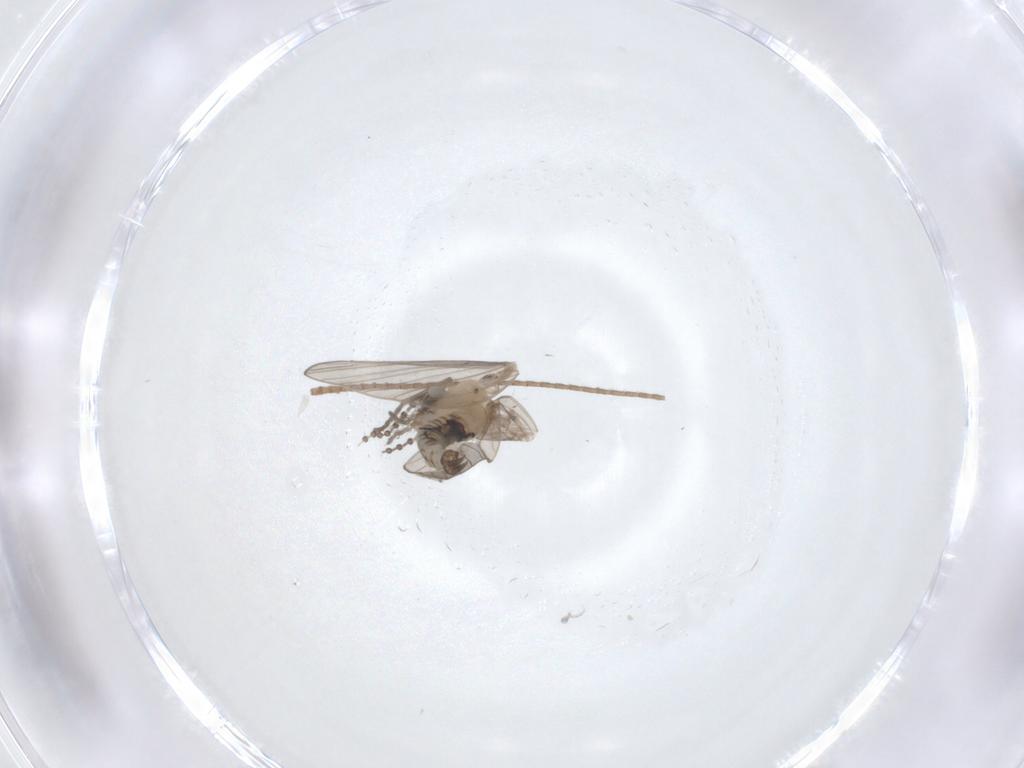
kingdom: Animalia
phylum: Arthropoda
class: Insecta
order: Diptera
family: Psychodidae
